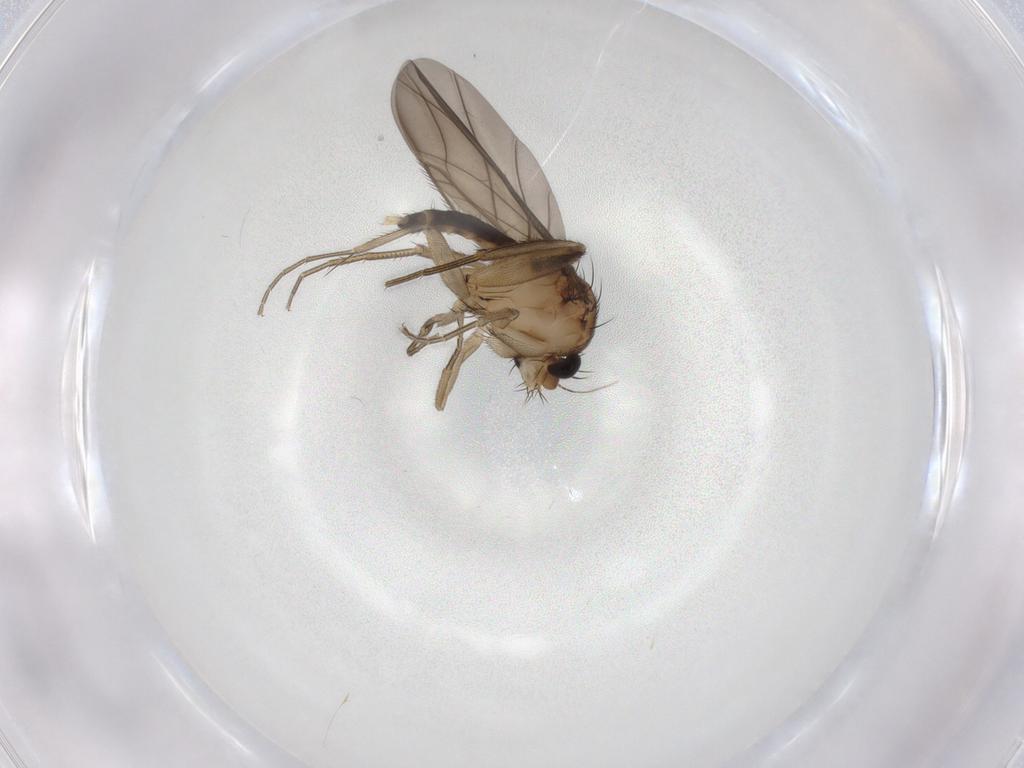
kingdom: Animalia
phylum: Arthropoda
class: Insecta
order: Diptera
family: Phoridae
